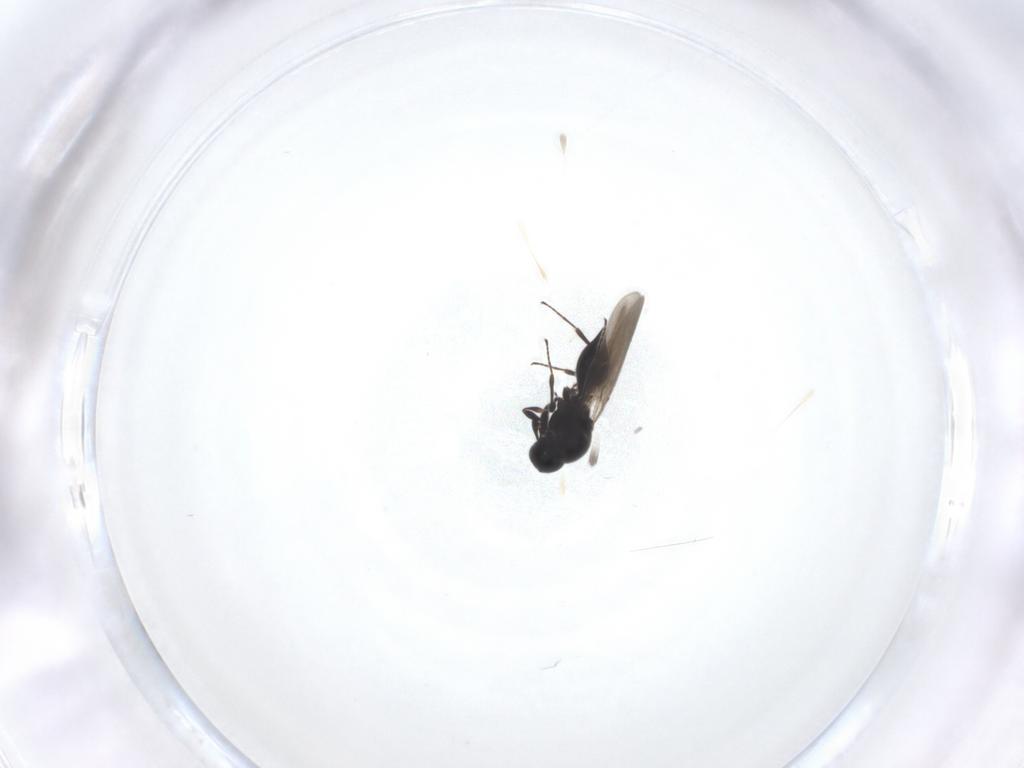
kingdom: Animalia
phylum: Arthropoda
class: Insecta
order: Hymenoptera
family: Platygastridae
